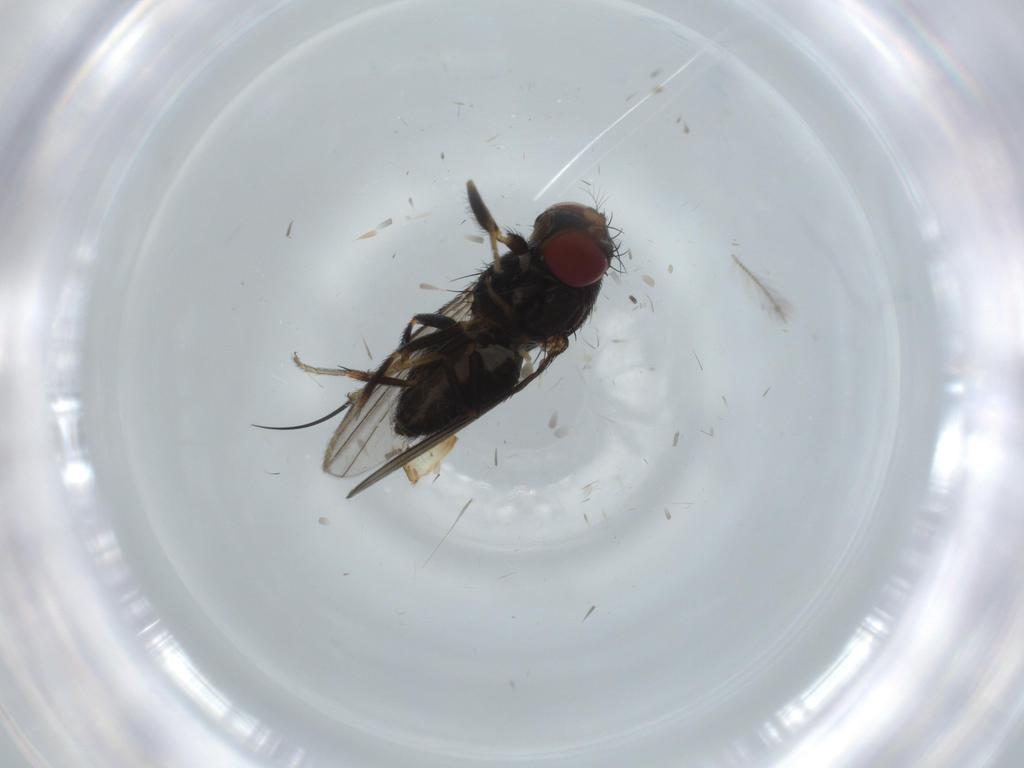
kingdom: Animalia
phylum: Arthropoda
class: Insecta
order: Diptera
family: Ephydridae
